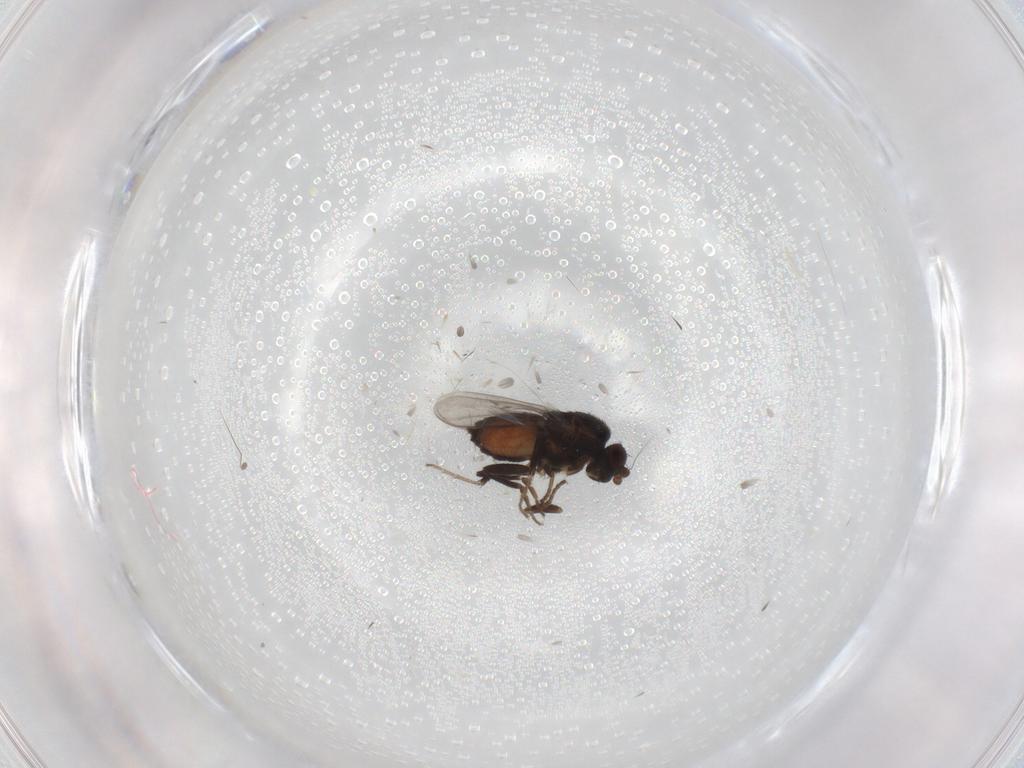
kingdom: Animalia
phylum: Arthropoda
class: Insecta
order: Diptera
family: Sphaeroceridae
